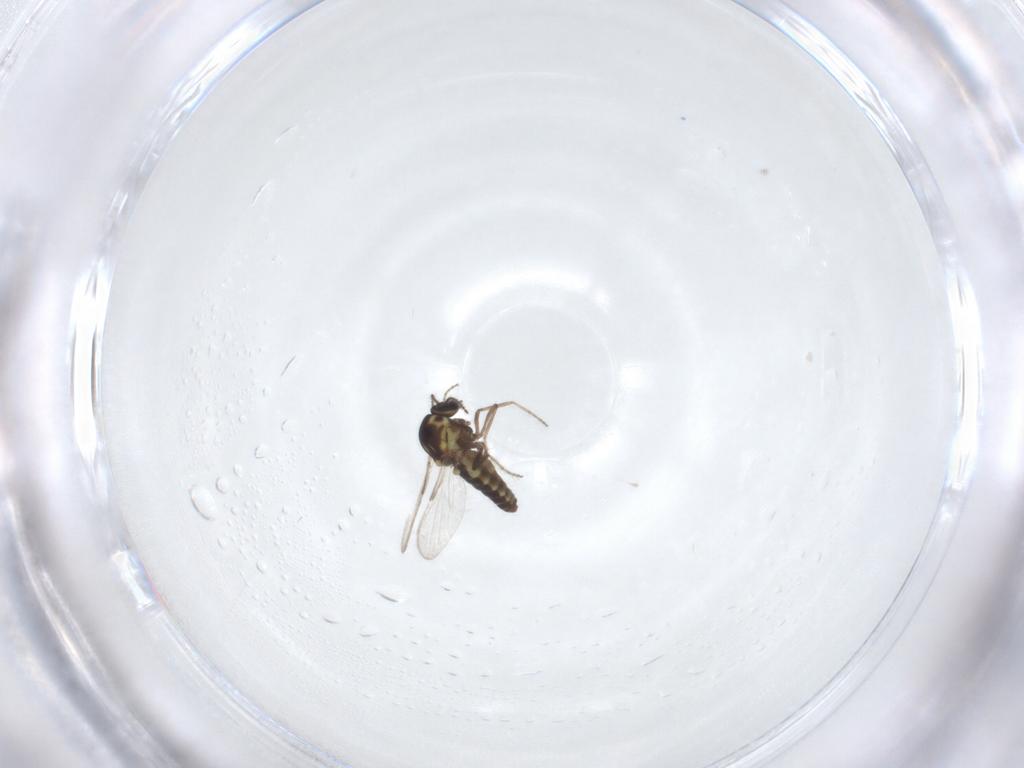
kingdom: Animalia
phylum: Arthropoda
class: Insecta
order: Diptera
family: Ceratopogonidae
